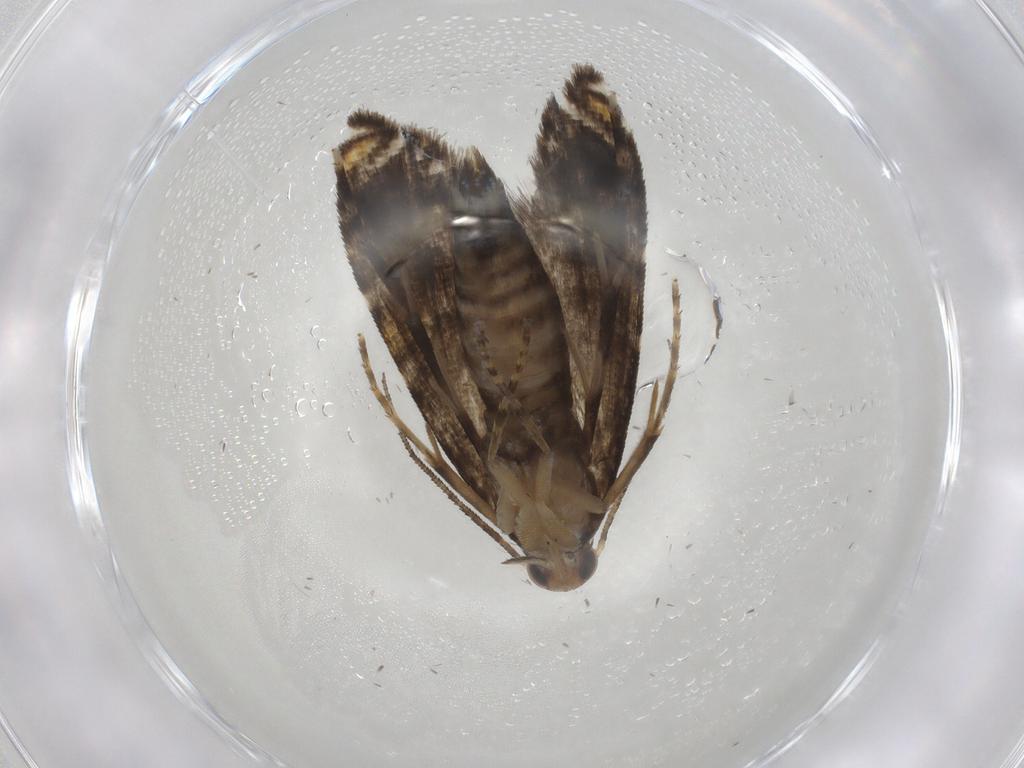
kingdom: Animalia
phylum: Arthropoda
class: Insecta
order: Lepidoptera
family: Glyphipterigidae
